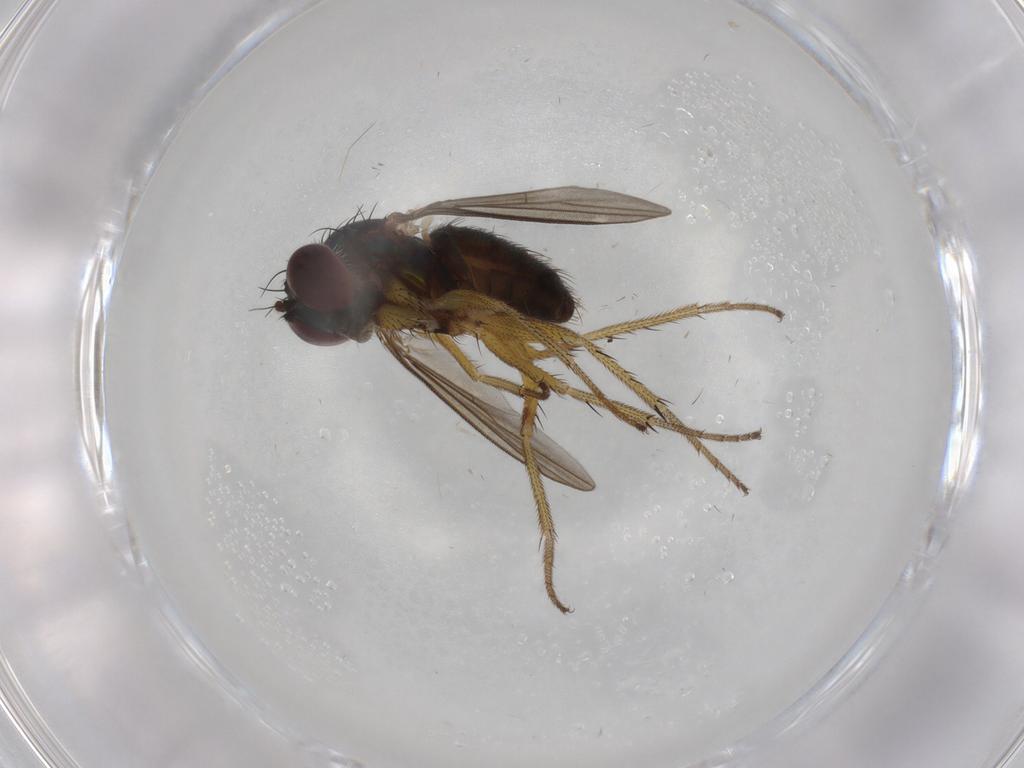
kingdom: Animalia
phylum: Arthropoda
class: Insecta
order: Diptera
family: Dolichopodidae
